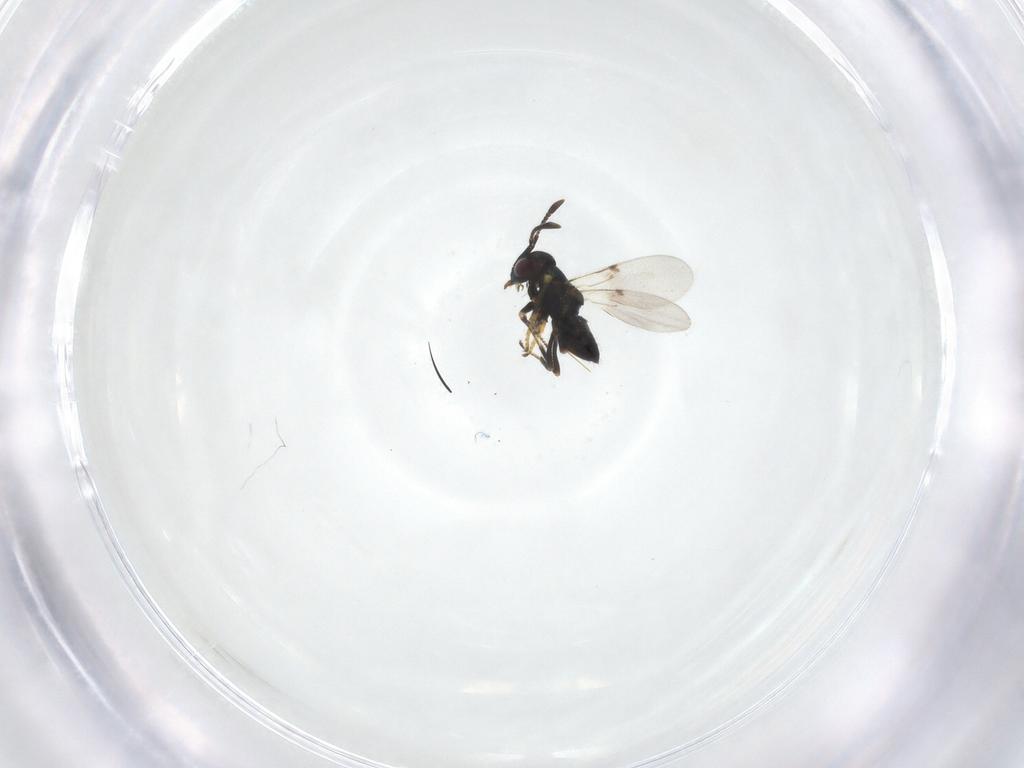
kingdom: Animalia
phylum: Arthropoda
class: Insecta
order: Hymenoptera
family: Encyrtidae
